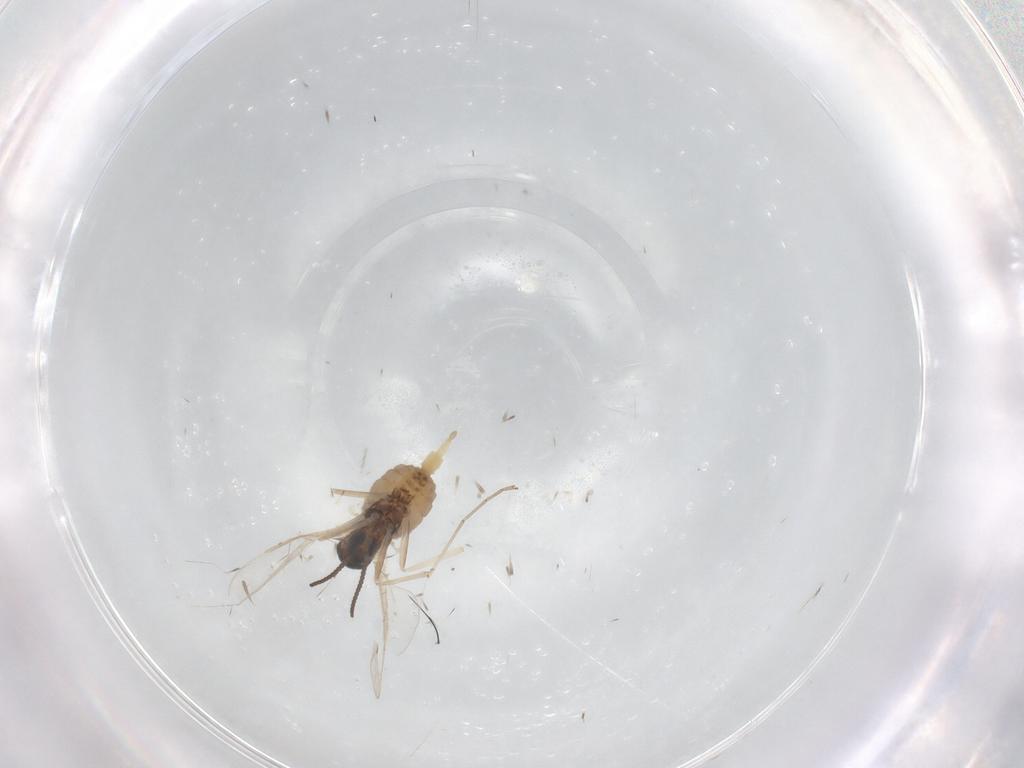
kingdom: Animalia
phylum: Arthropoda
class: Insecta
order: Diptera
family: Cecidomyiidae
